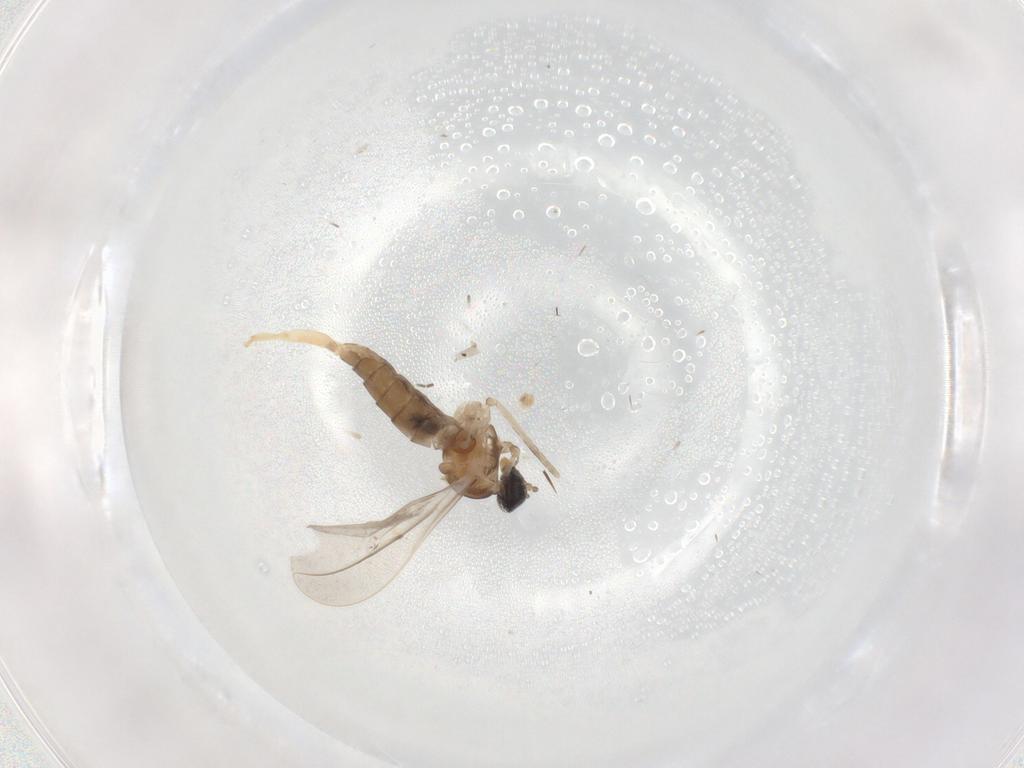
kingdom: Animalia
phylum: Arthropoda
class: Insecta
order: Diptera
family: Cecidomyiidae
